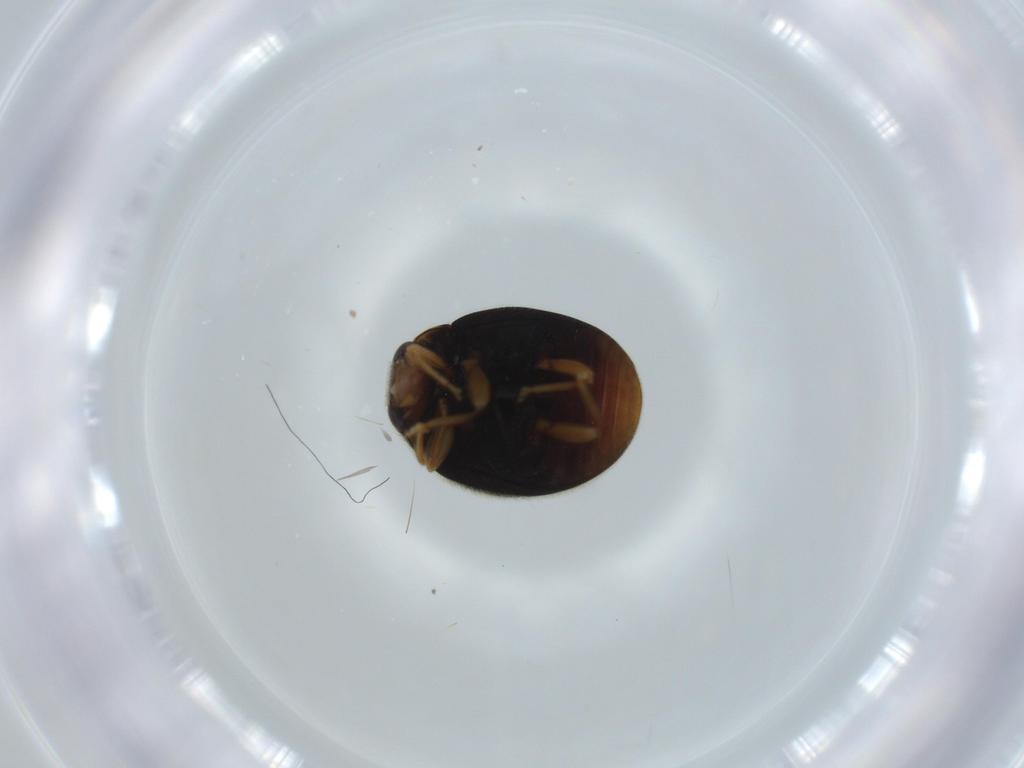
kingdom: Animalia
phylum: Arthropoda
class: Insecta
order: Coleoptera
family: Coccinellidae
